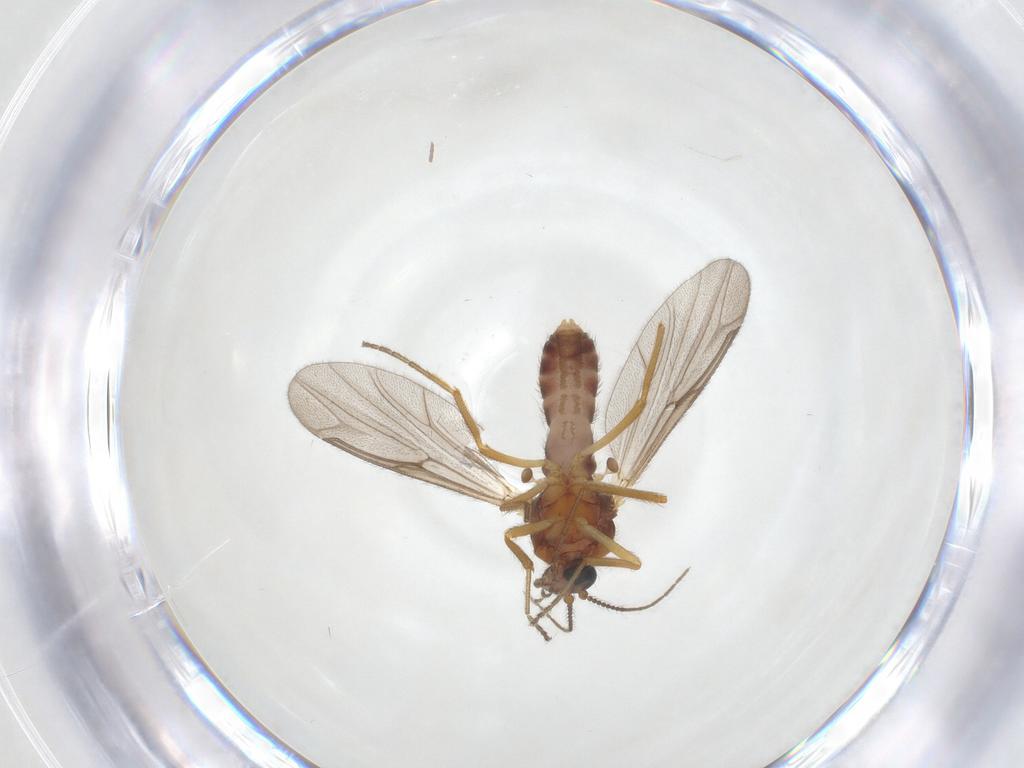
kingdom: Animalia
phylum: Arthropoda
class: Insecta
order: Diptera
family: Ceratopogonidae
